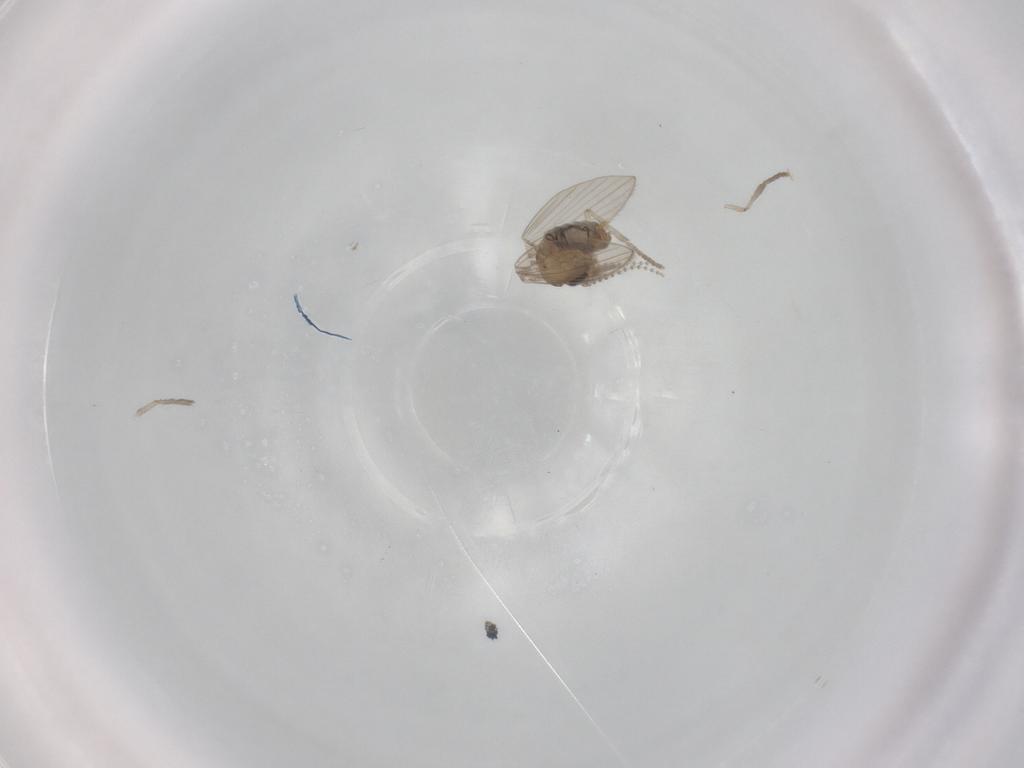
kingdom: Animalia
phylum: Arthropoda
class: Insecta
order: Diptera
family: Psychodidae
